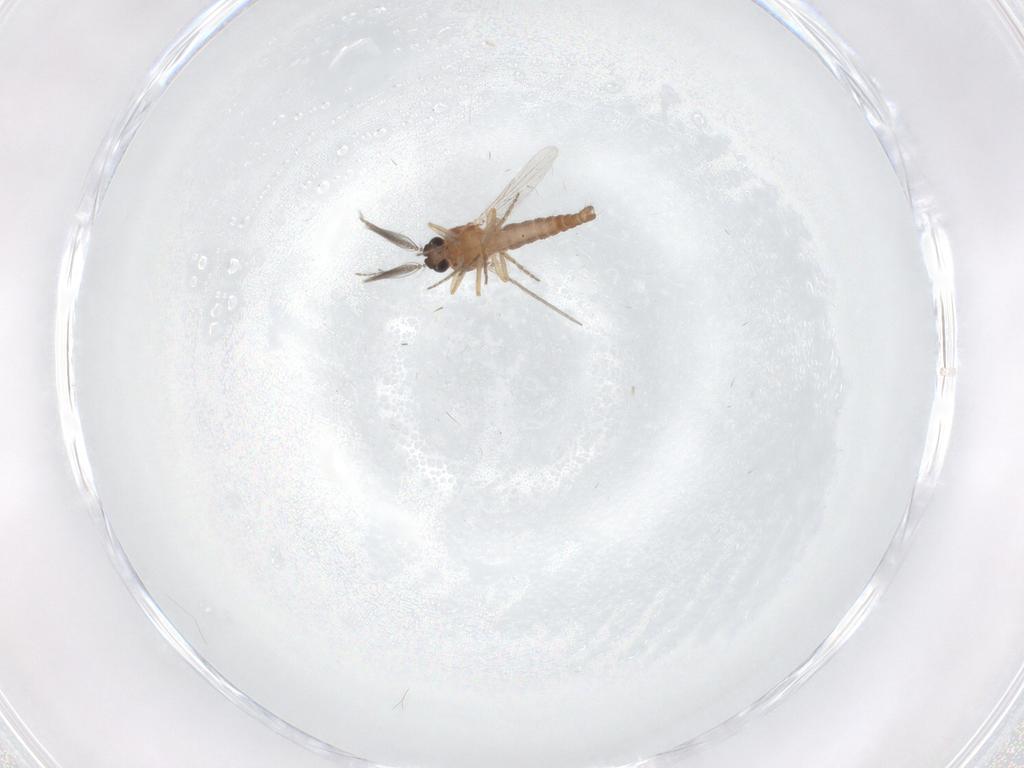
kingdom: Animalia
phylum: Arthropoda
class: Insecta
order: Diptera
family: Ceratopogonidae
